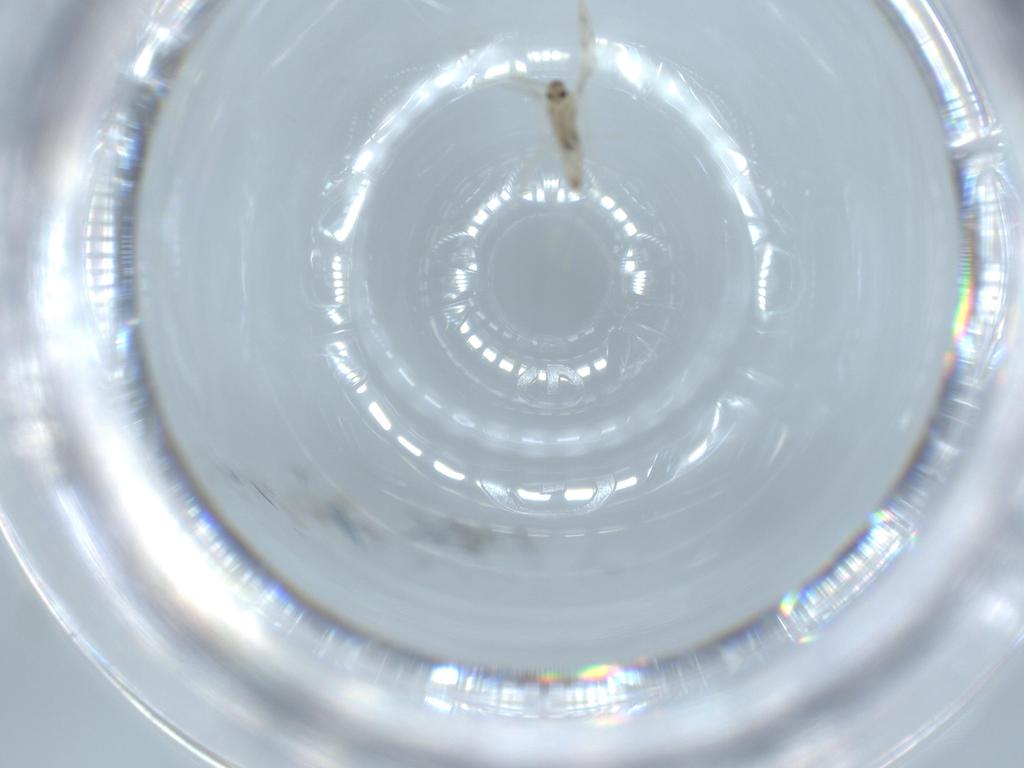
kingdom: Animalia
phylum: Arthropoda
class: Insecta
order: Diptera
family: Cecidomyiidae
